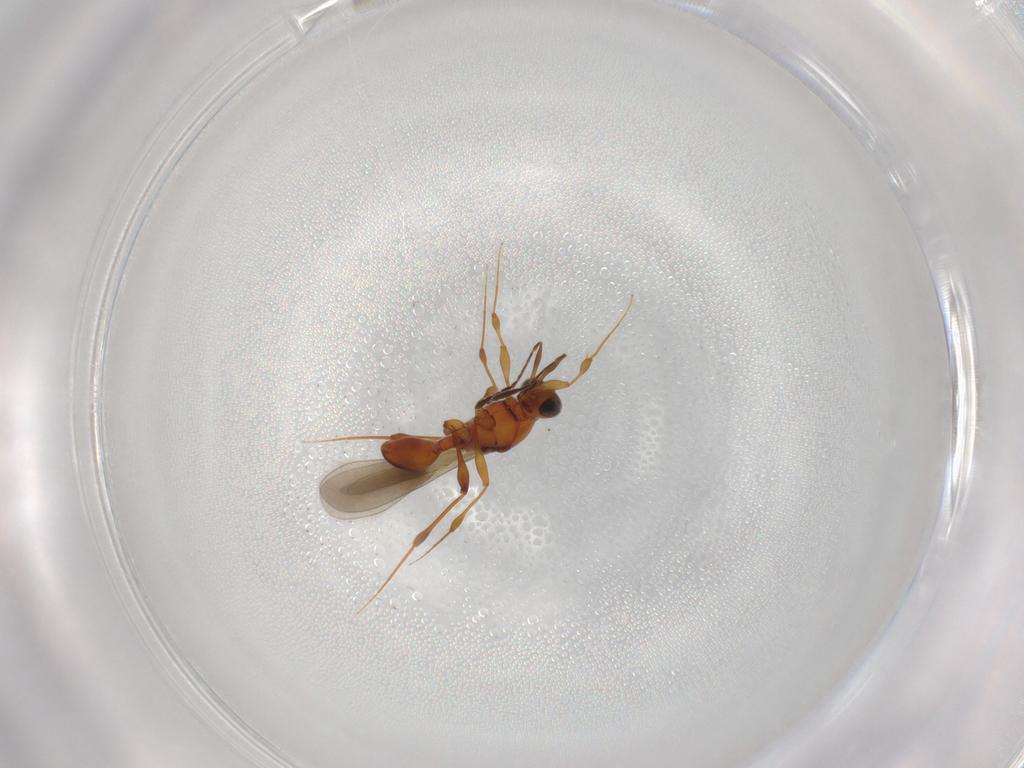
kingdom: Animalia
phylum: Arthropoda
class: Insecta
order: Hymenoptera
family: Platygastridae
